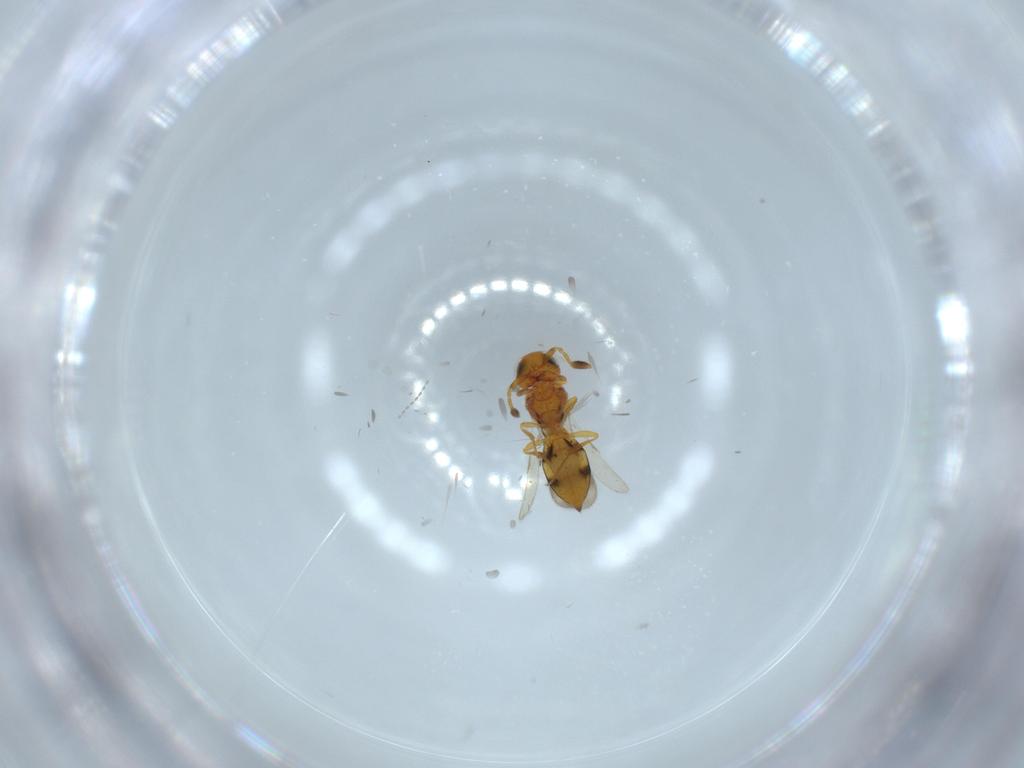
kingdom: Animalia
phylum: Arthropoda
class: Insecta
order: Hymenoptera
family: Scelionidae
